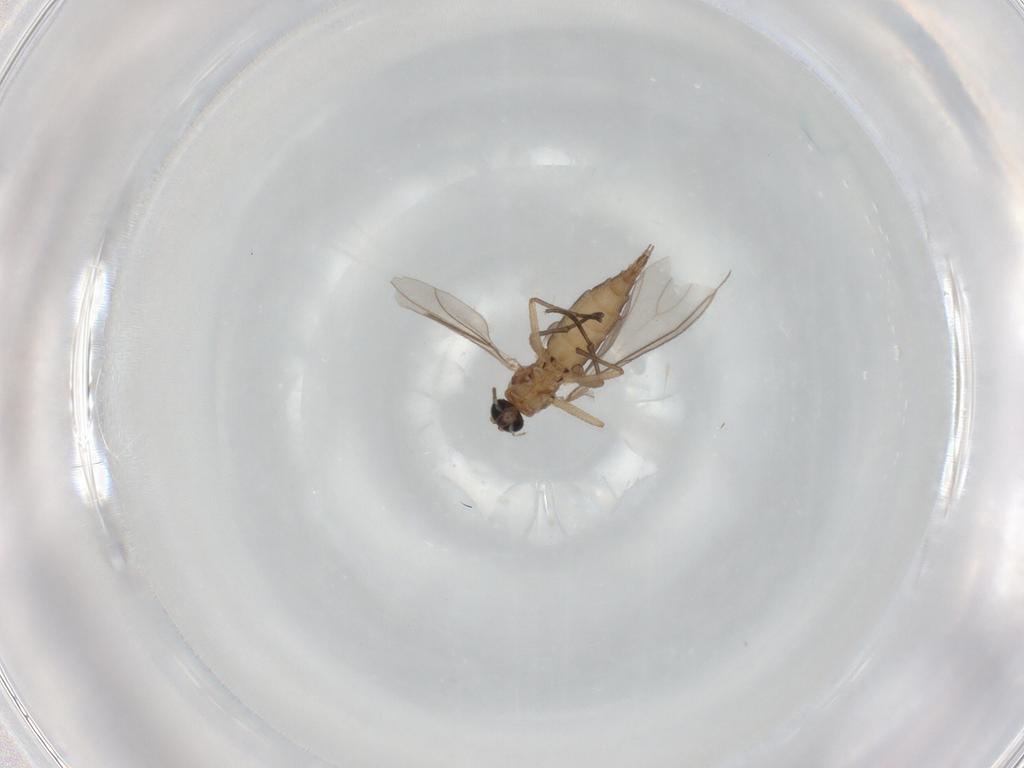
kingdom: Animalia
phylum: Arthropoda
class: Insecta
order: Diptera
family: Sciaridae
